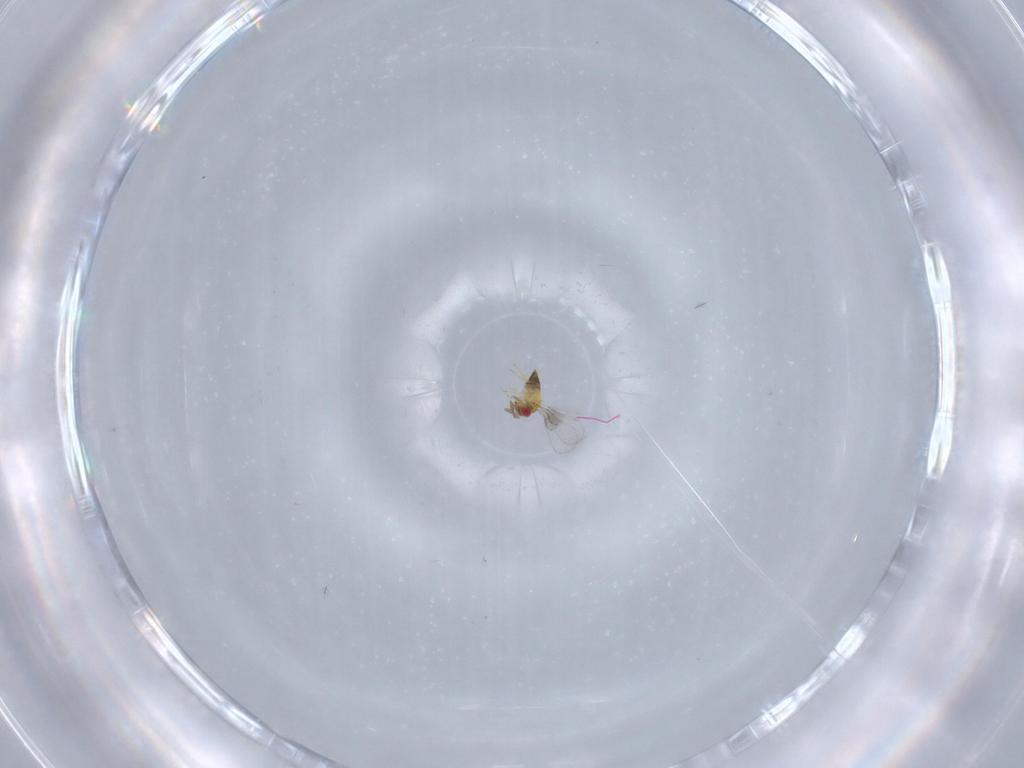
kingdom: Animalia
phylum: Arthropoda
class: Insecta
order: Hymenoptera
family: Trichogrammatidae
